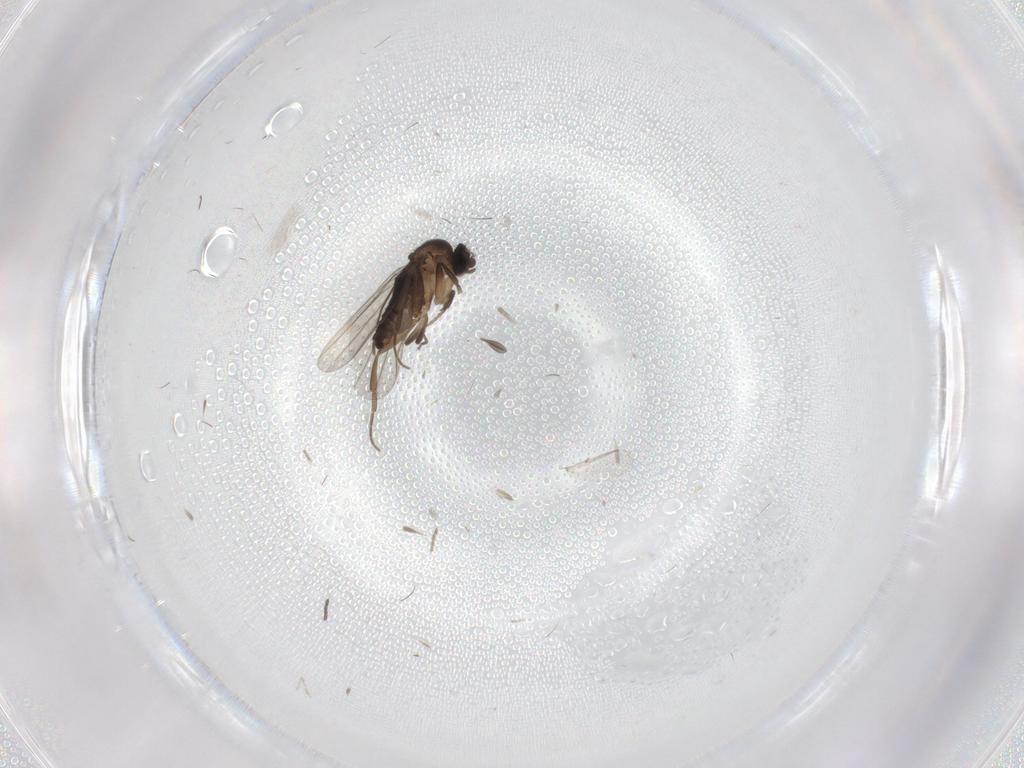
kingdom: Animalia
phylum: Arthropoda
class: Insecta
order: Diptera
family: Phoridae
